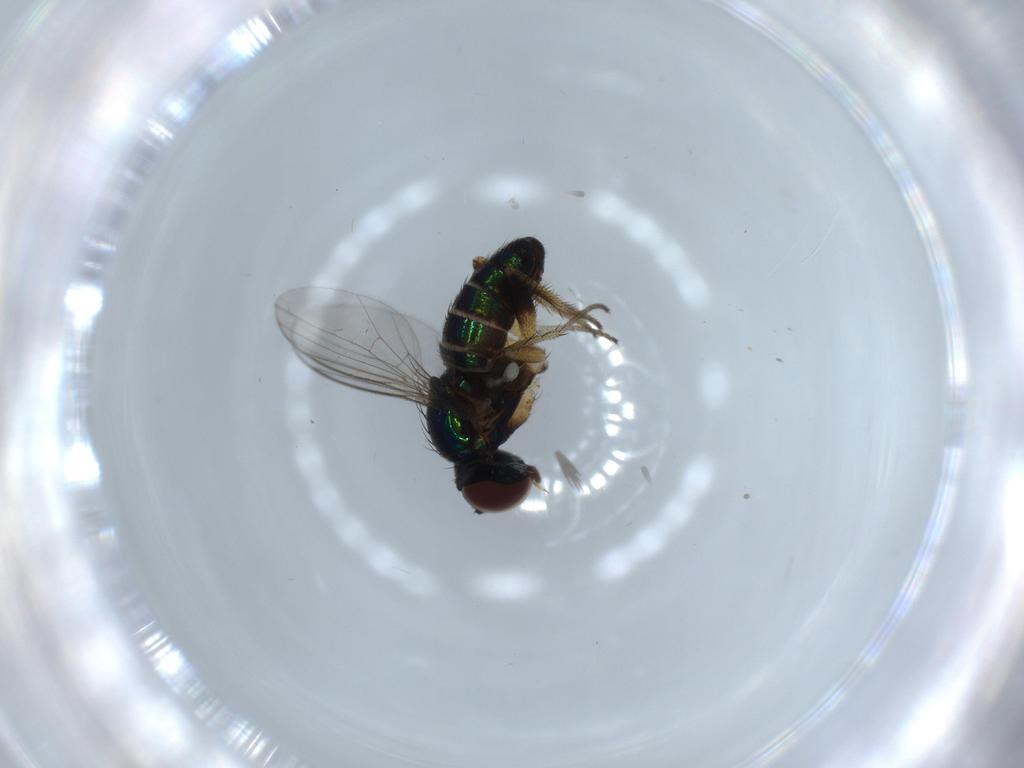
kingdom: Animalia
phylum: Arthropoda
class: Insecta
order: Diptera
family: Dolichopodidae
